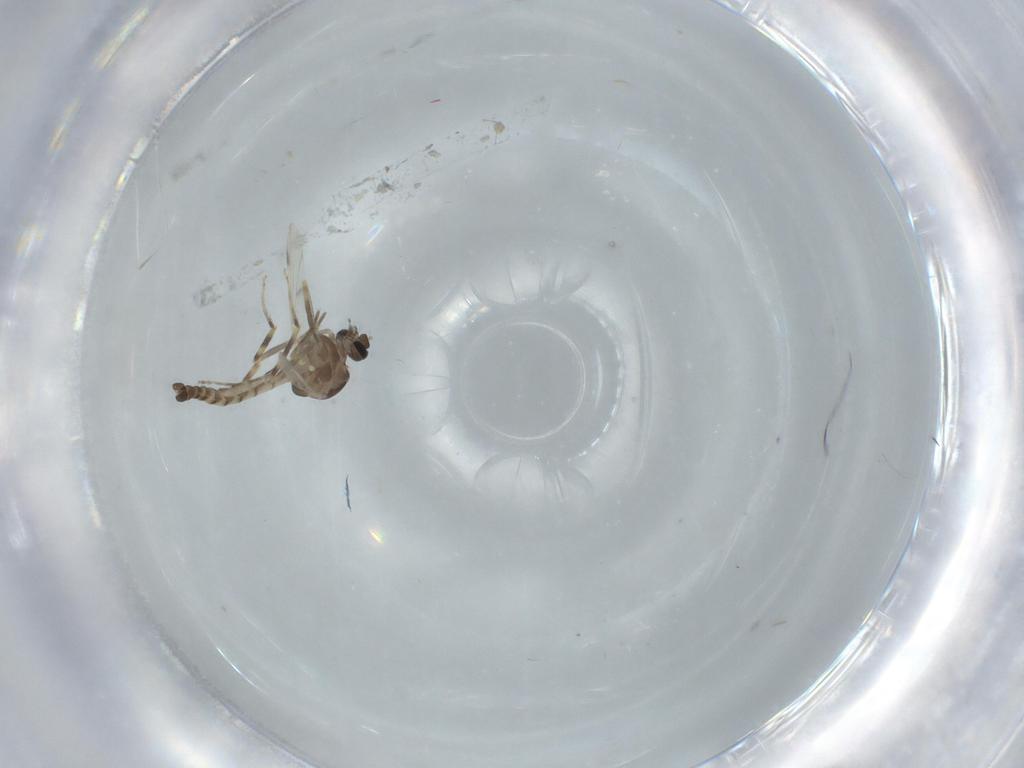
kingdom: Animalia
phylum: Arthropoda
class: Insecta
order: Diptera
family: Ceratopogonidae
